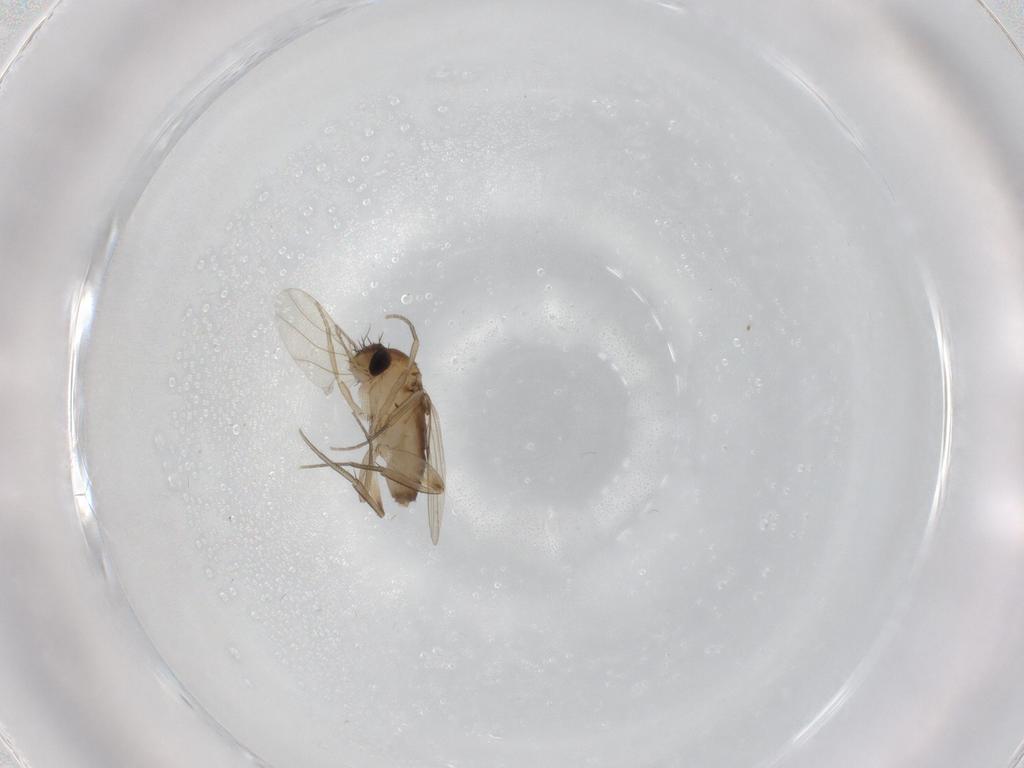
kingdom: Animalia
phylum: Arthropoda
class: Insecta
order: Diptera
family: Phoridae
